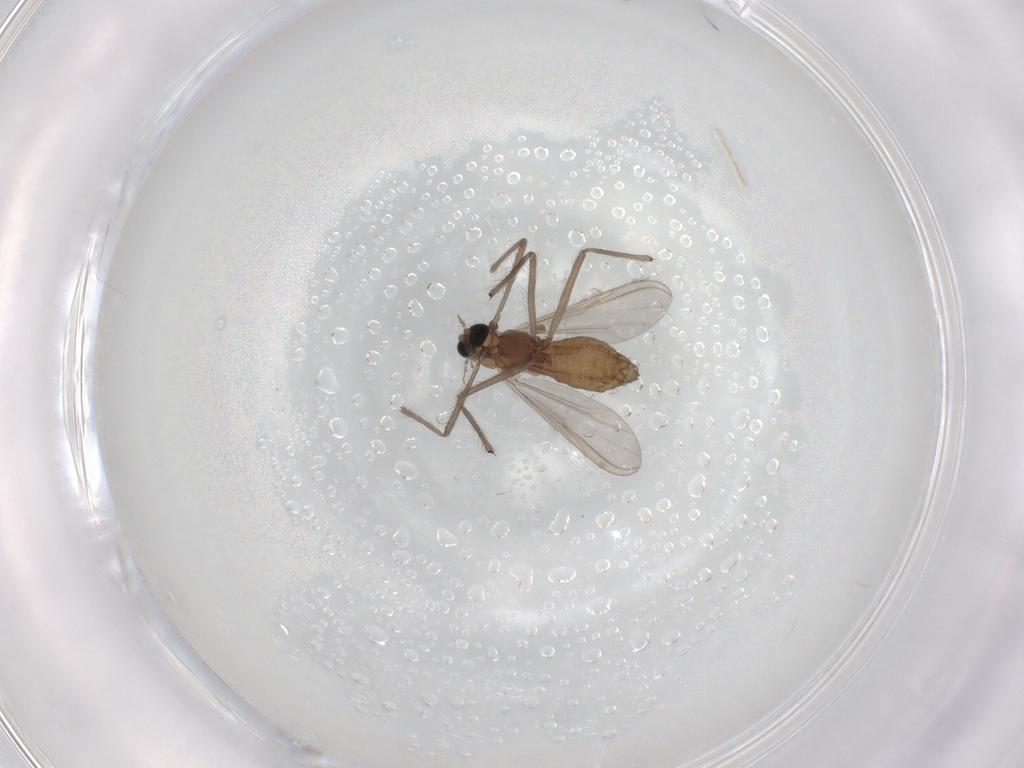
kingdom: Animalia
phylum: Arthropoda
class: Insecta
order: Diptera
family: Chironomidae
